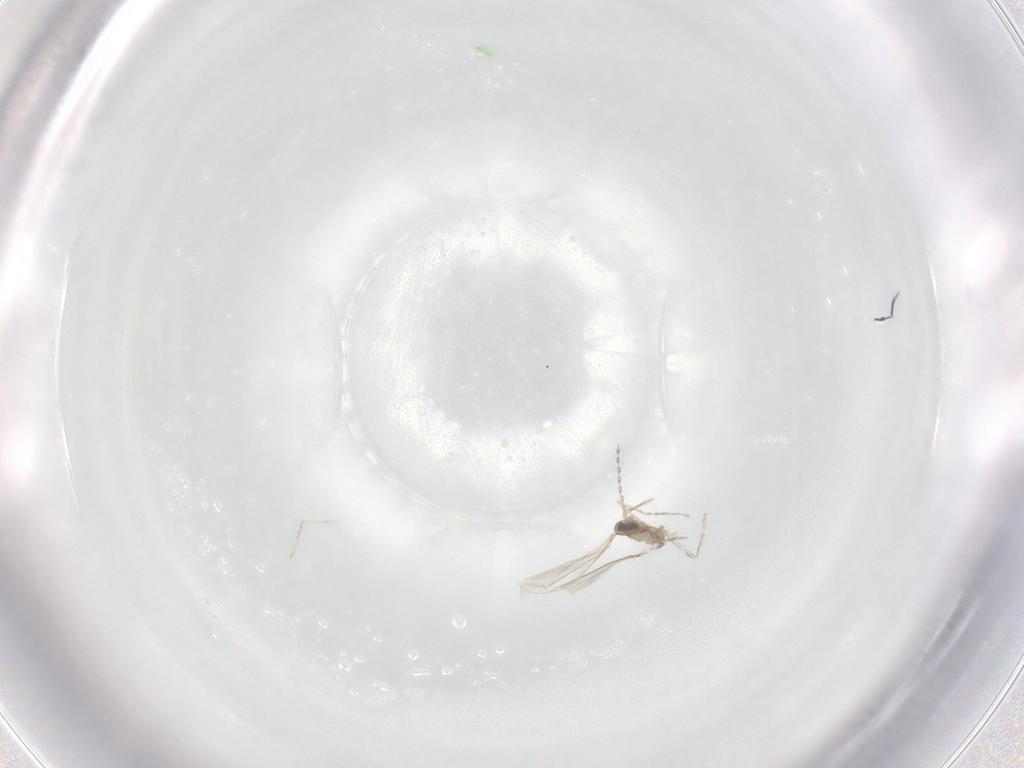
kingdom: Animalia
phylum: Arthropoda
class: Insecta
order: Diptera
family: Cecidomyiidae
